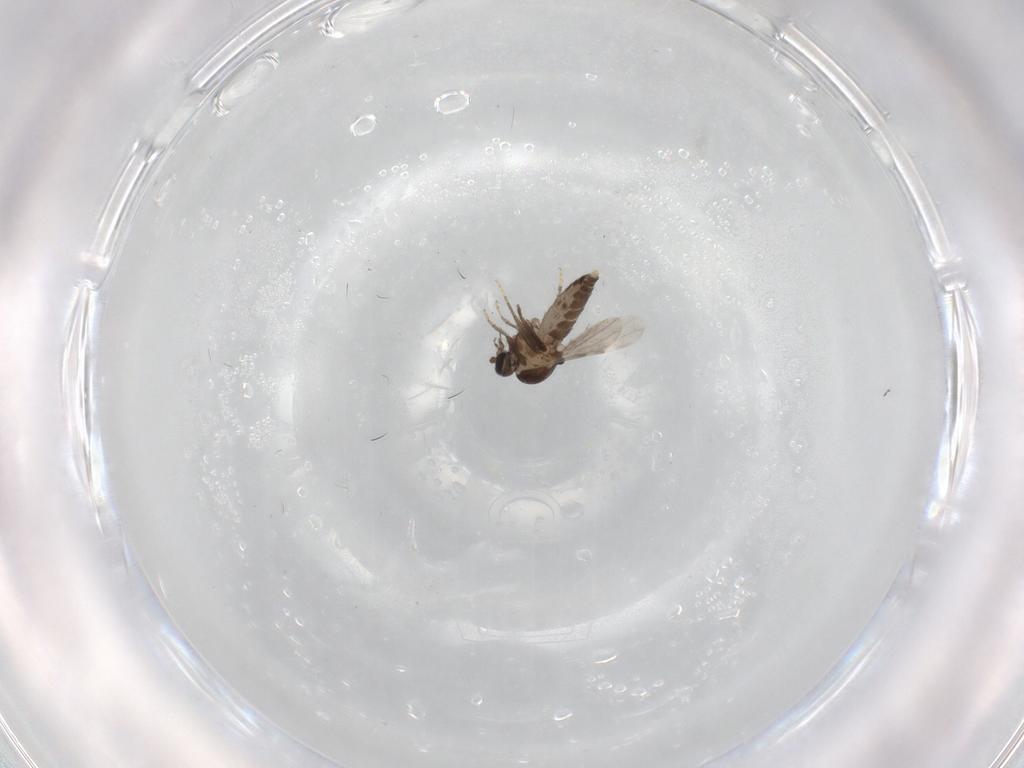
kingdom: Animalia
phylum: Arthropoda
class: Insecta
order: Diptera
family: Ceratopogonidae
